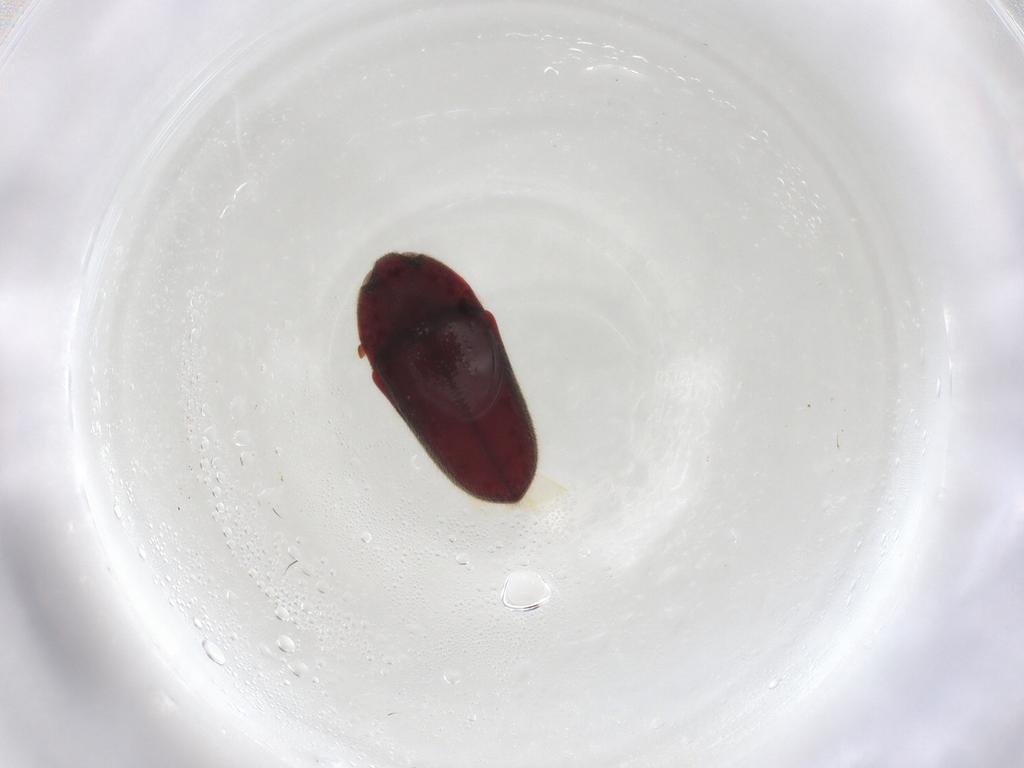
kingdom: Animalia
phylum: Arthropoda
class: Insecta
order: Coleoptera
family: Throscidae
